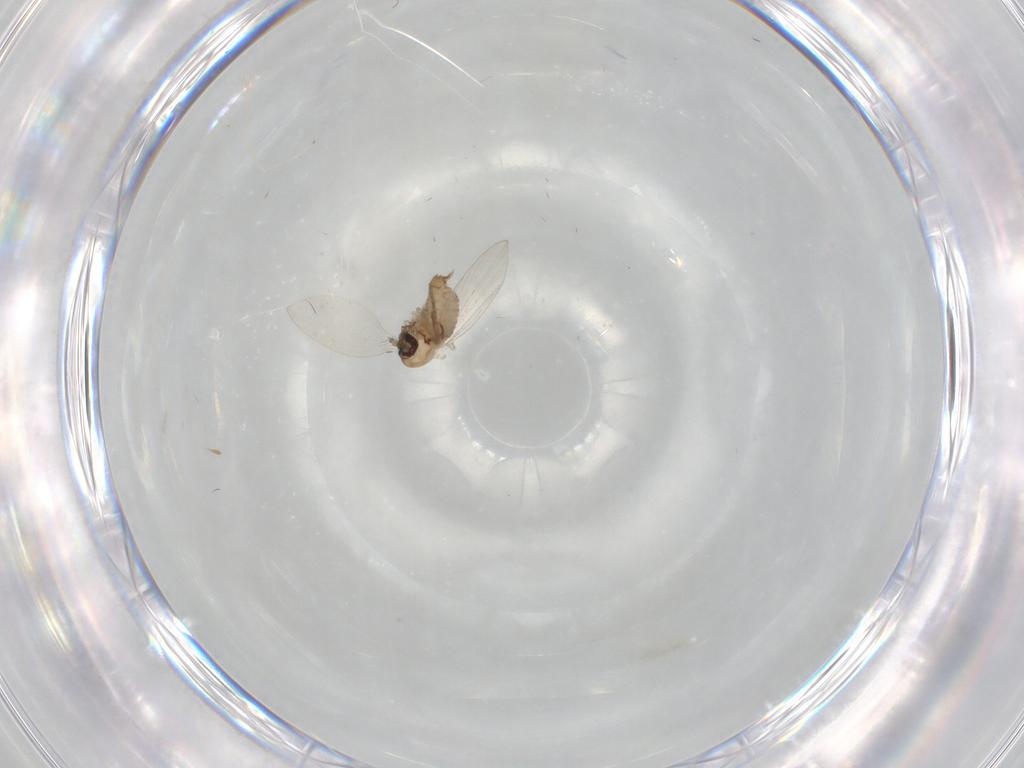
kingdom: Animalia
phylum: Arthropoda
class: Insecta
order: Diptera
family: Psychodidae
